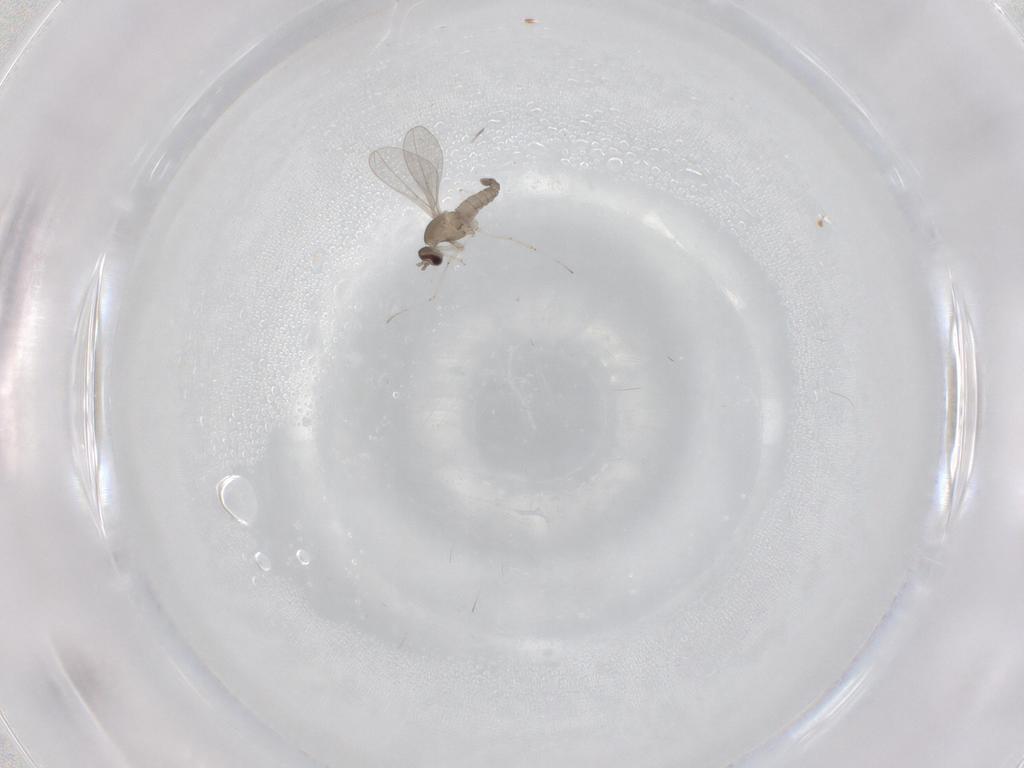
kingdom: Animalia
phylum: Arthropoda
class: Insecta
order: Diptera
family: Cecidomyiidae
